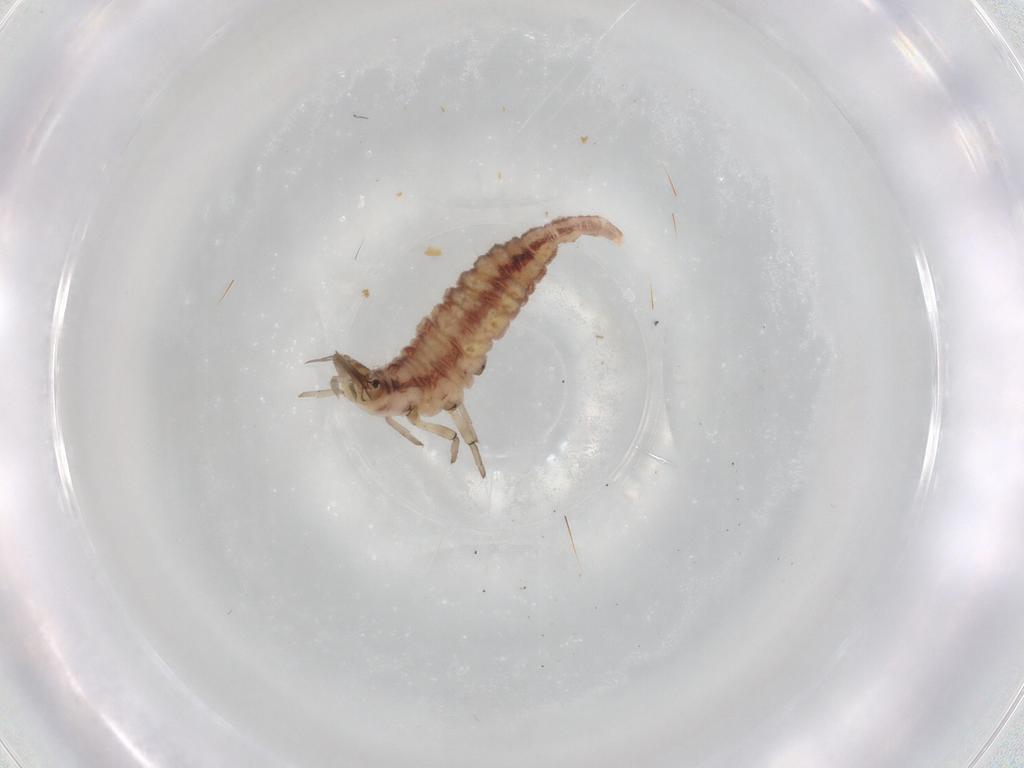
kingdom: Animalia
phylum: Arthropoda
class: Insecta
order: Neuroptera
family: Hemerobiidae
